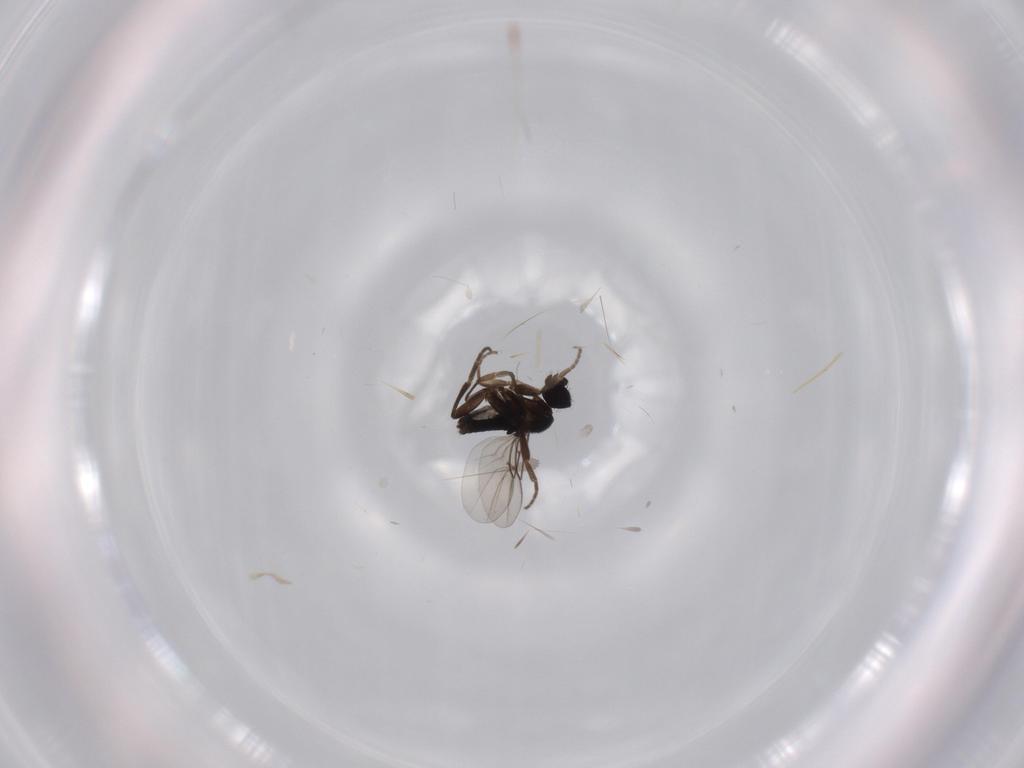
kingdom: Animalia
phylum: Arthropoda
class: Insecta
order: Diptera
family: Phoridae
